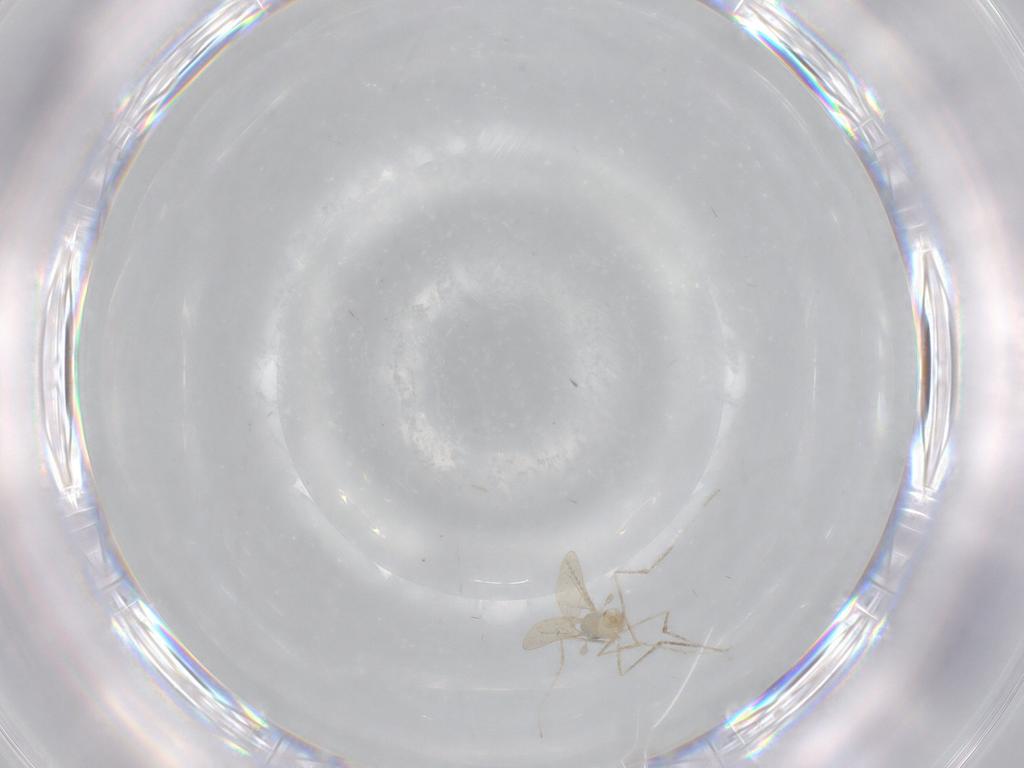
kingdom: Animalia
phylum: Arthropoda
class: Insecta
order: Diptera
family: Cecidomyiidae
